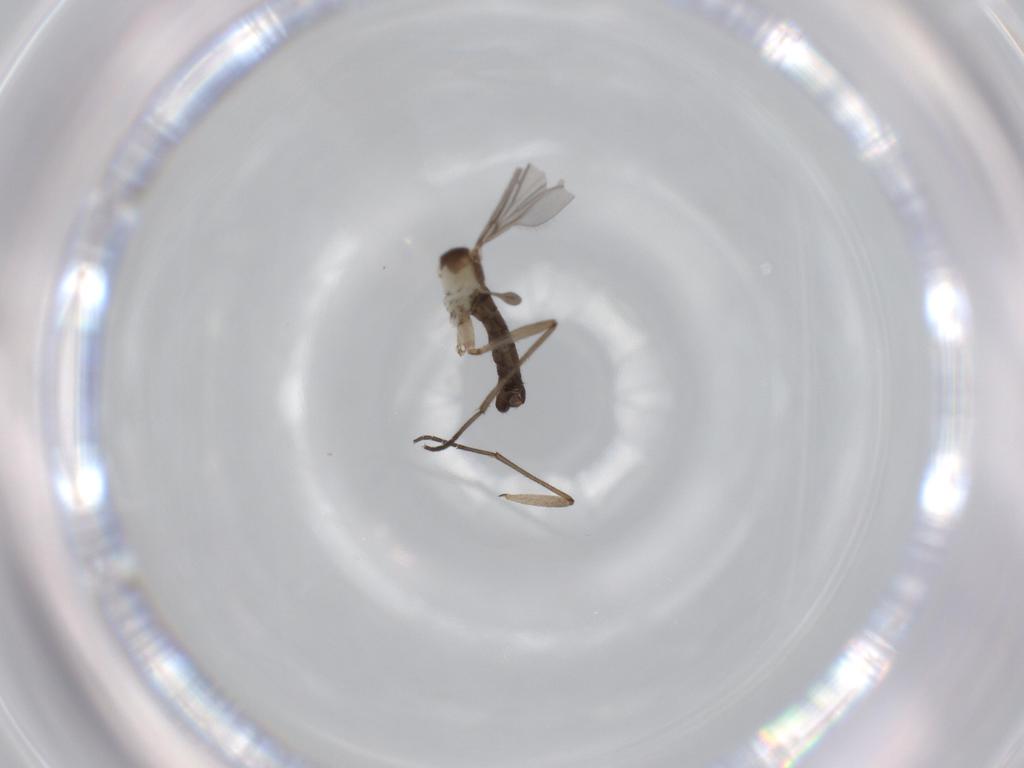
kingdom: Animalia
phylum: Arthropoda
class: Insecta
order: Diptera
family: Sciaridae
